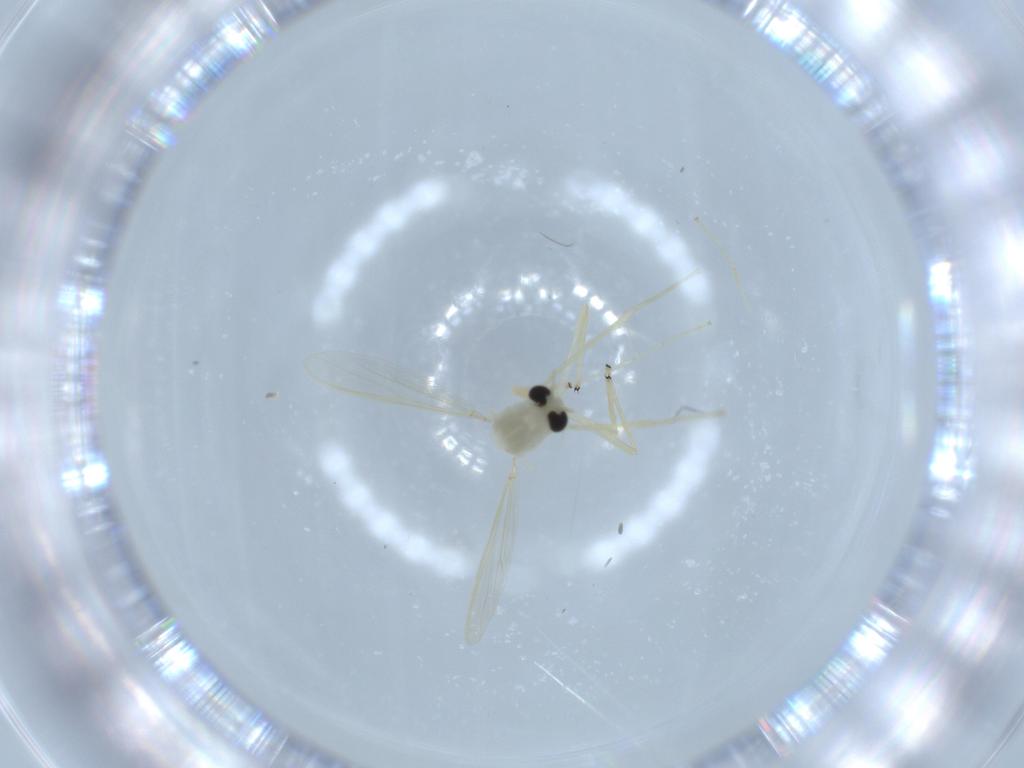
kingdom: Animalia
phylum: Arthropoda
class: Insecta
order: Diptera
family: Chironomidae
